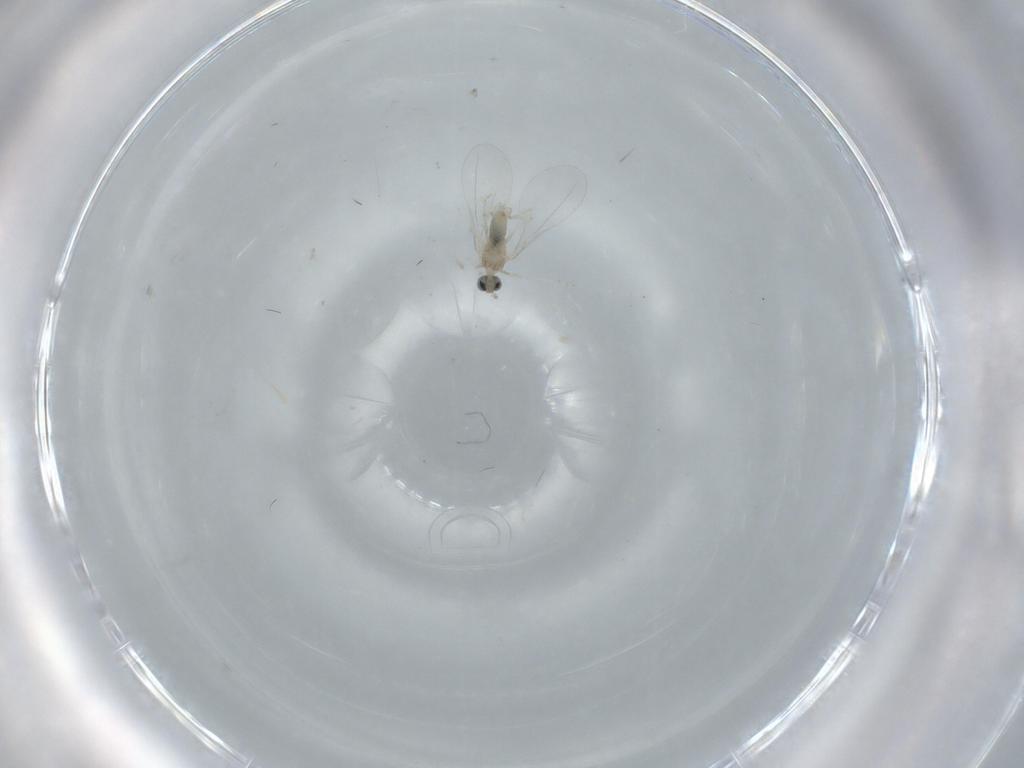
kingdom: Animalia
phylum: Arthropoda
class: Insecta
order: Diptera
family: Cecidomyiidae
